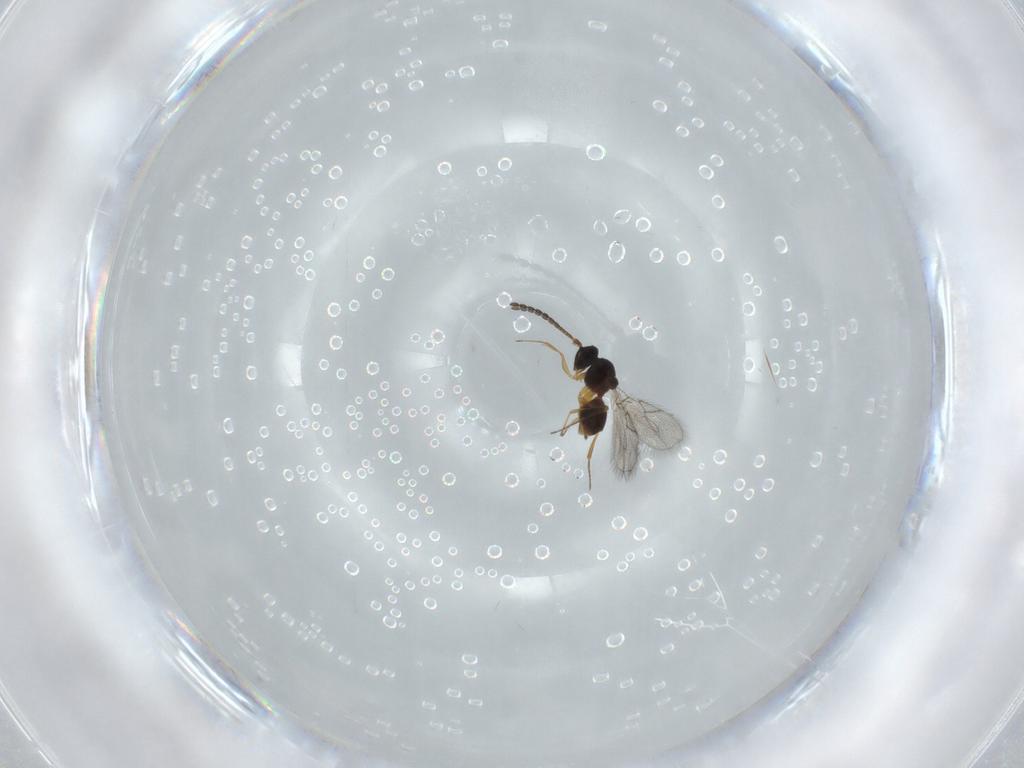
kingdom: Animalia
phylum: Arthropoda
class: Insecta
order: Hymenoptera
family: Figitidae
